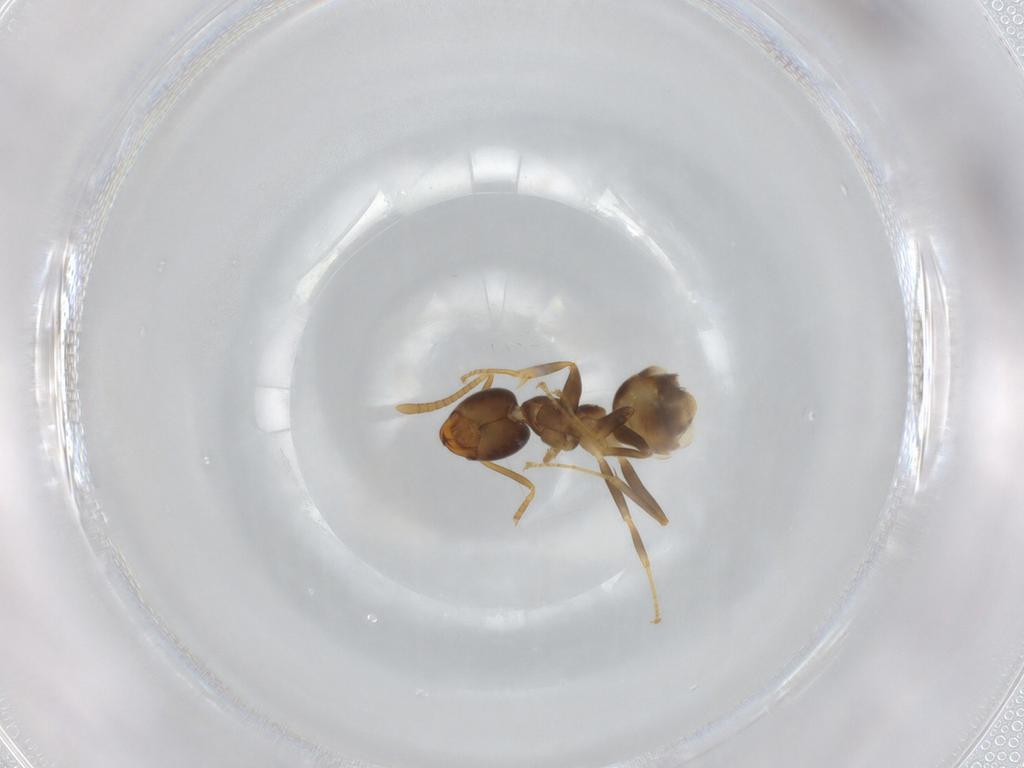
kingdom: Animalia
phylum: Arthropoda
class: Insecta
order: Hymenoptera
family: Formicidae
